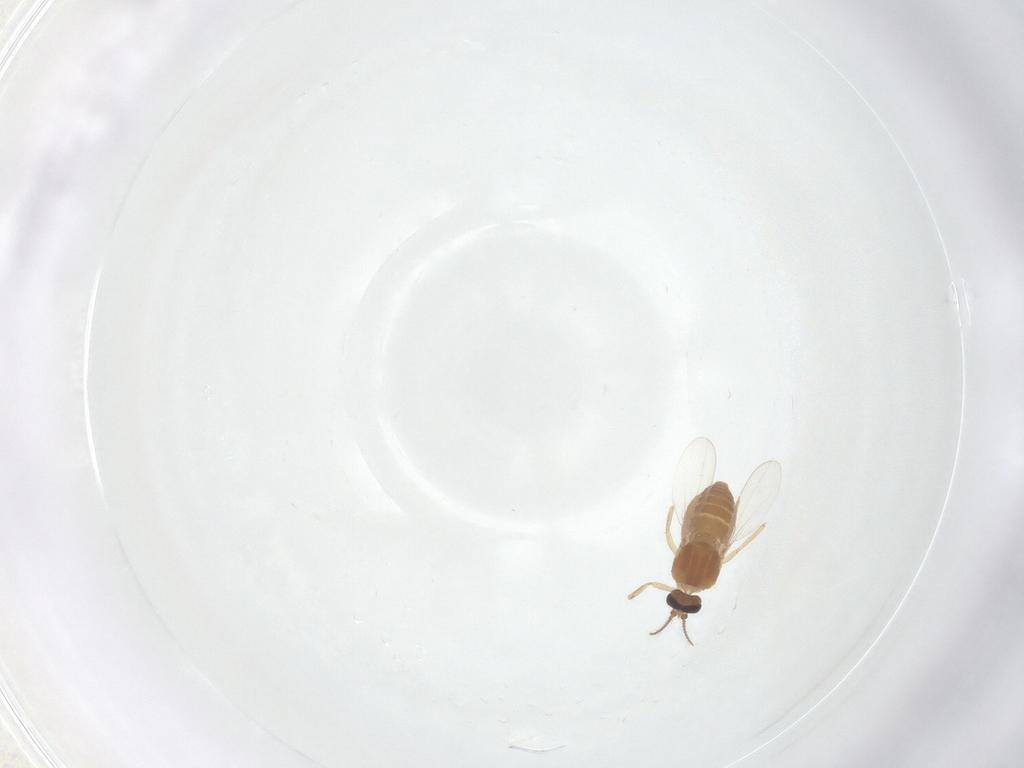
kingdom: Animalia
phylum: Arthropoda
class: Insecta
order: Diptera
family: Ceratopogonidae
